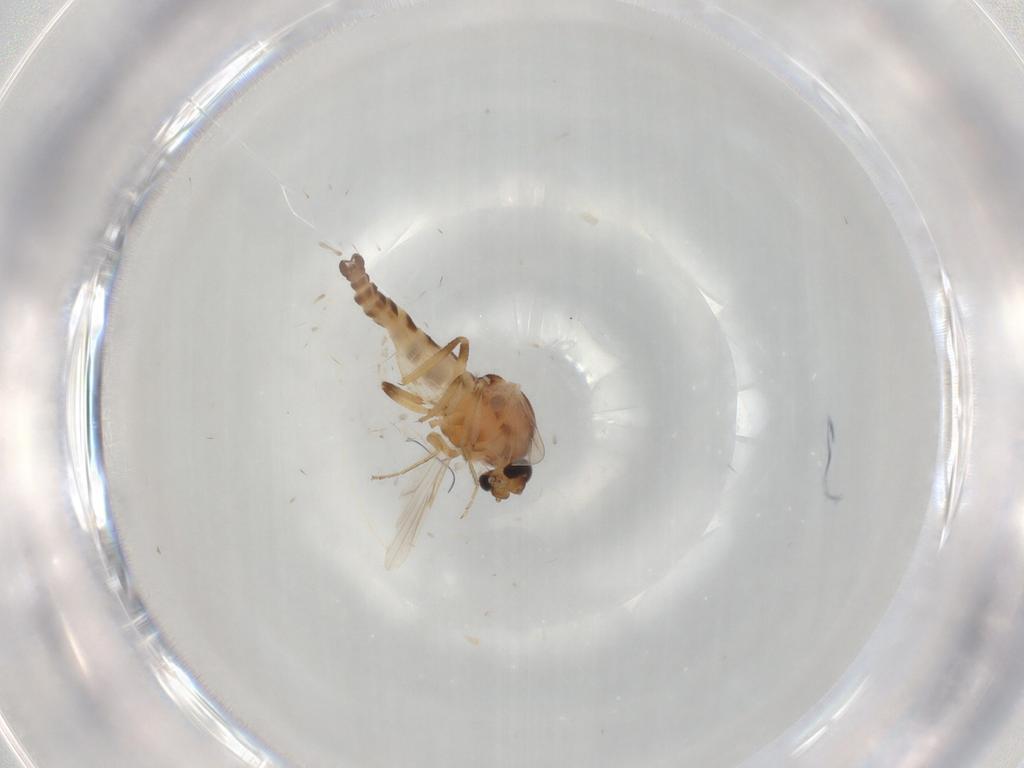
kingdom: Animalia
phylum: Arthropoda
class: Insecta
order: Diptera
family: Ceratopogonidae
